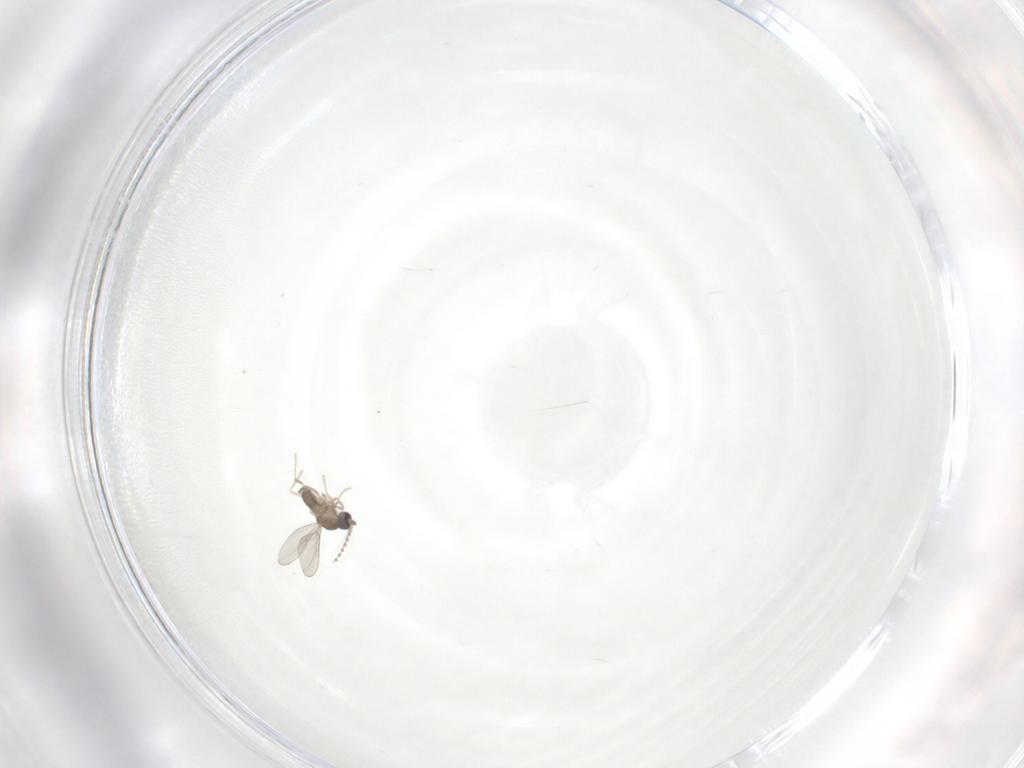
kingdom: Animalia
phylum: Arthropoda
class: Insecta
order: Diptera
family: Cecidomyiidae
